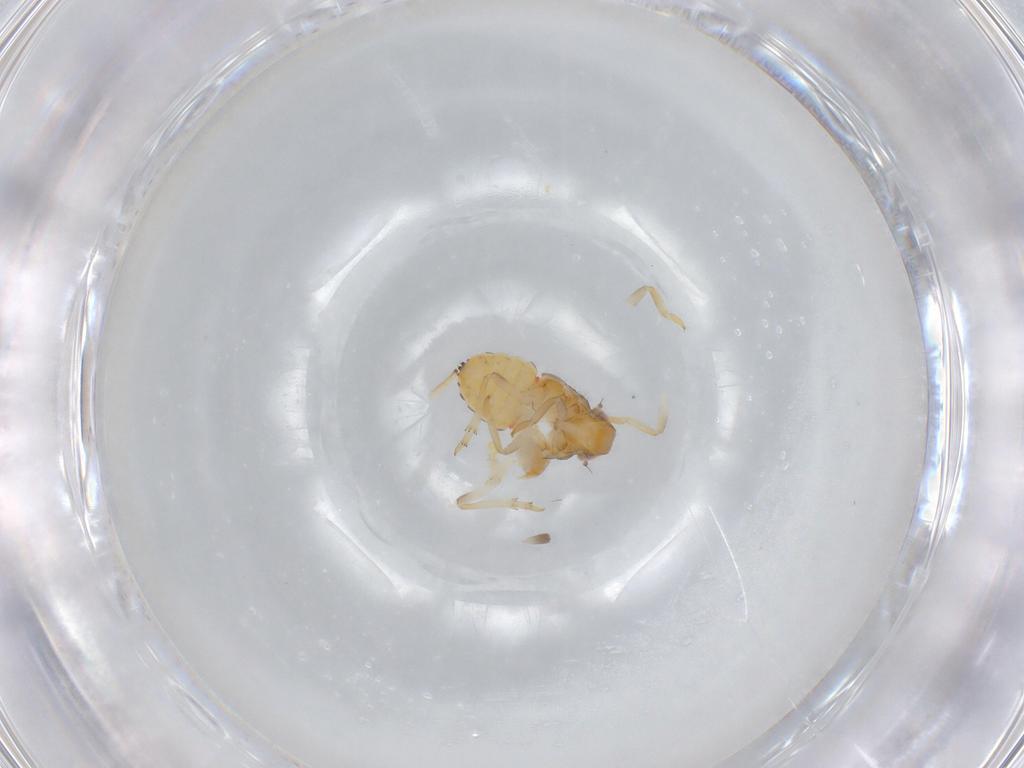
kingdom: Animalia
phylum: Arthropoda
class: Insecta
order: Hemiptera
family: Issidae
